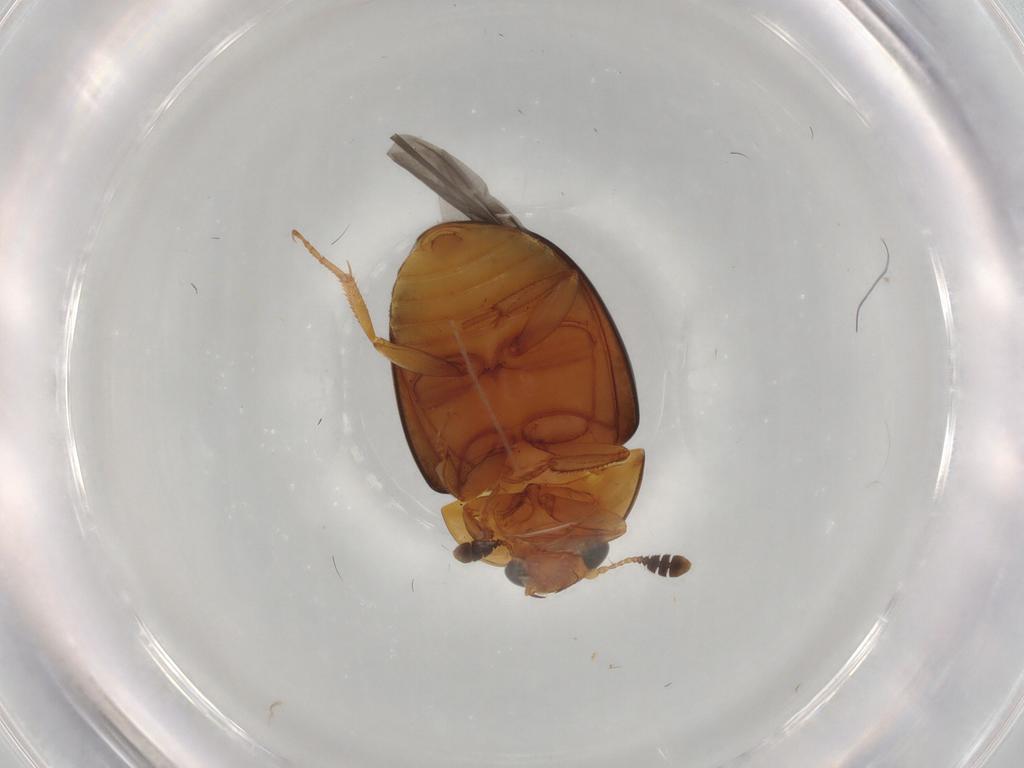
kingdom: Animalia
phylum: Arthropoda
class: Insecta
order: Coleoptera
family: Nitidulidae
